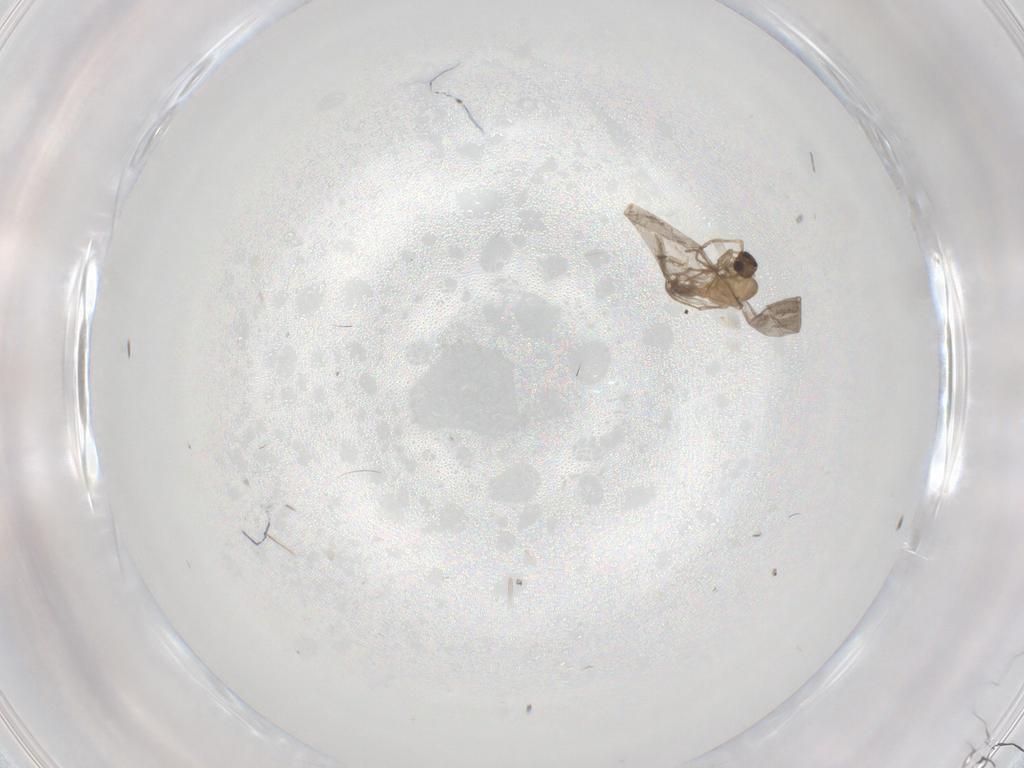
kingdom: Animalia
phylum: Arthropoda
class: Insecta
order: Hymenoptera
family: Formicidae
